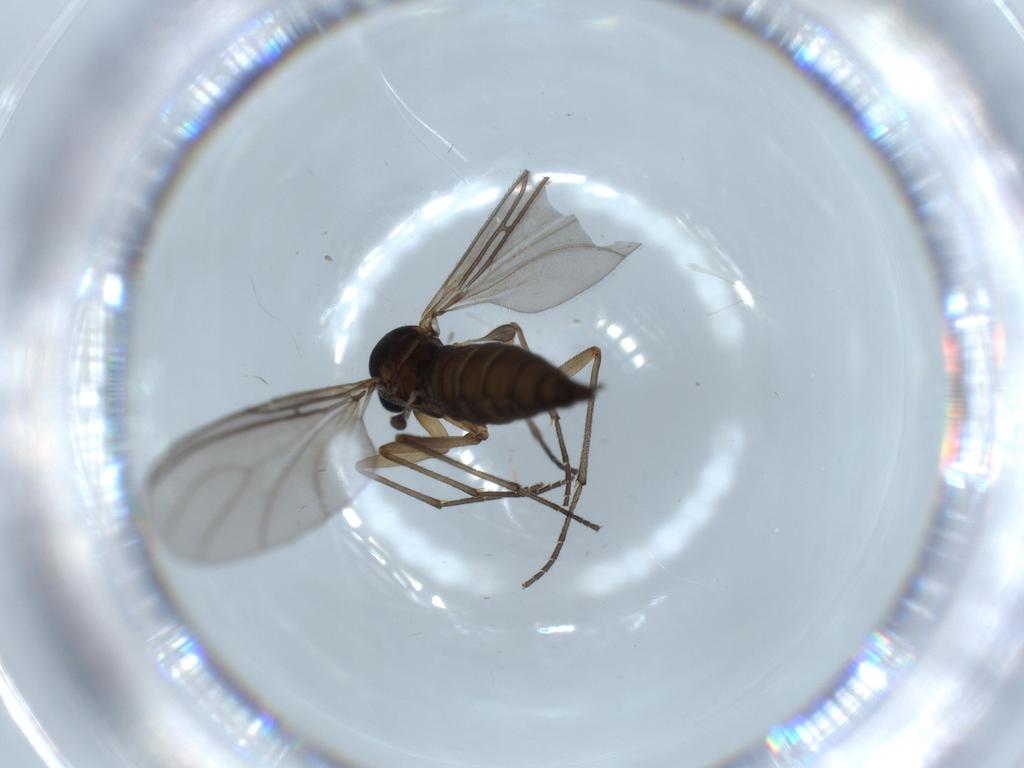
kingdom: Animalia
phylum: Arthropoda
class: Insecta
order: Diptera
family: Sciaridae
